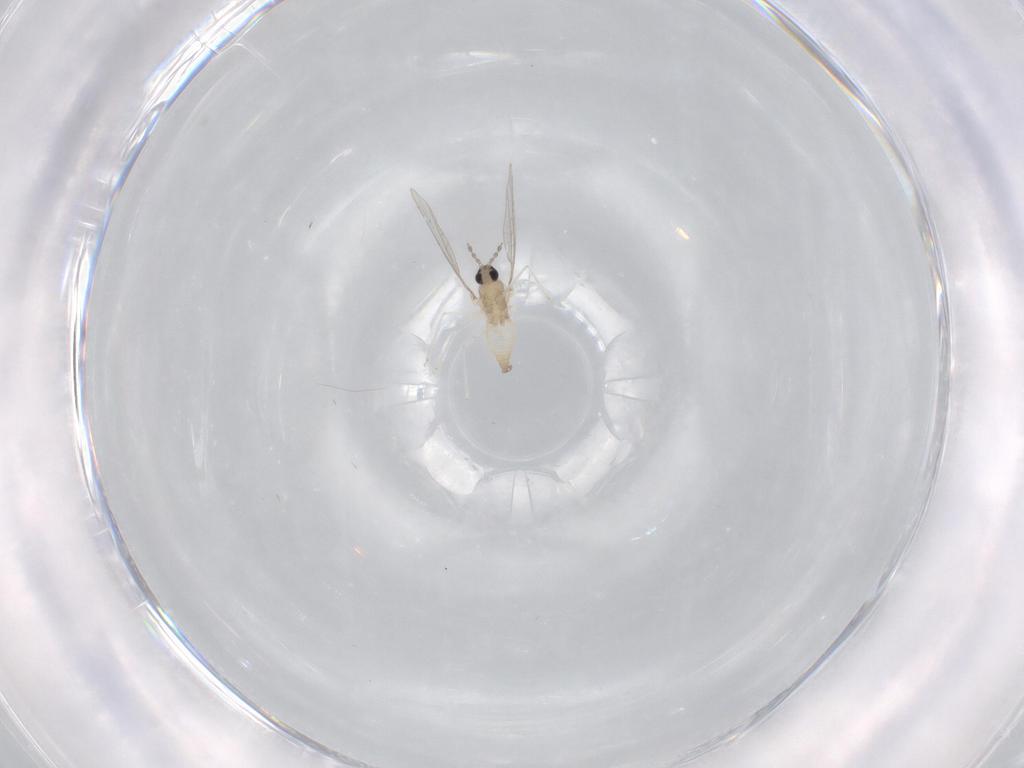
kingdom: Animalia
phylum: Arthropoda
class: Insecta
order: Diptera
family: Cecidomyiidae
